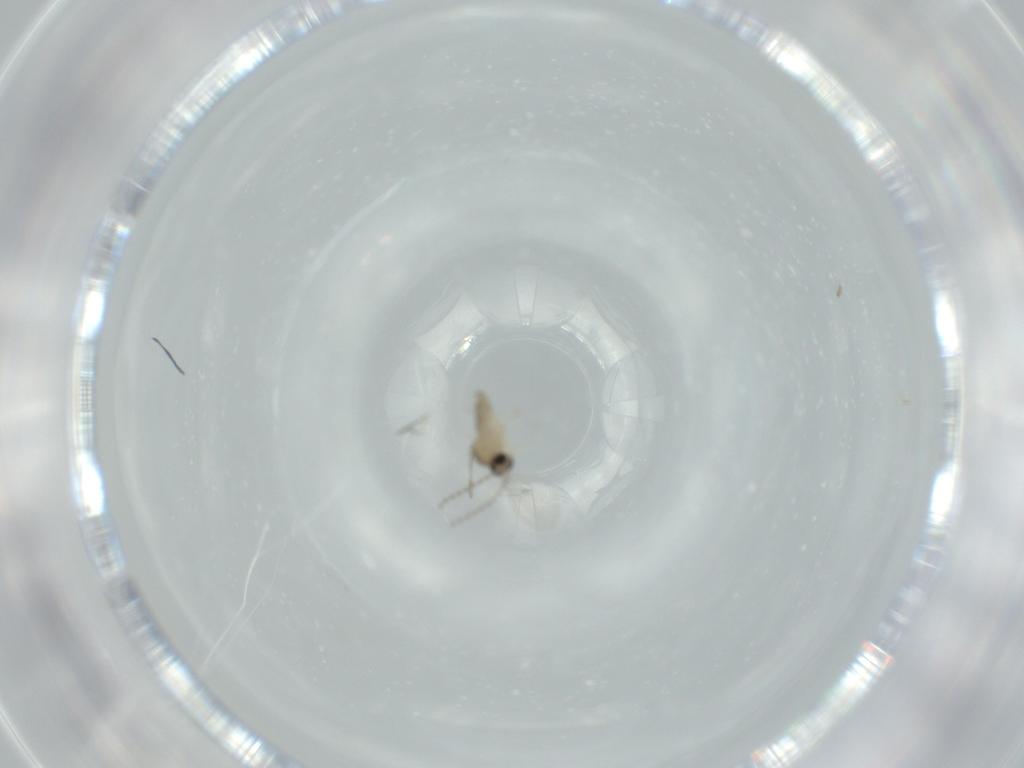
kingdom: Animalia
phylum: Arthropoda
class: Insecta
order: Diptera
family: Cecidomyiidae
